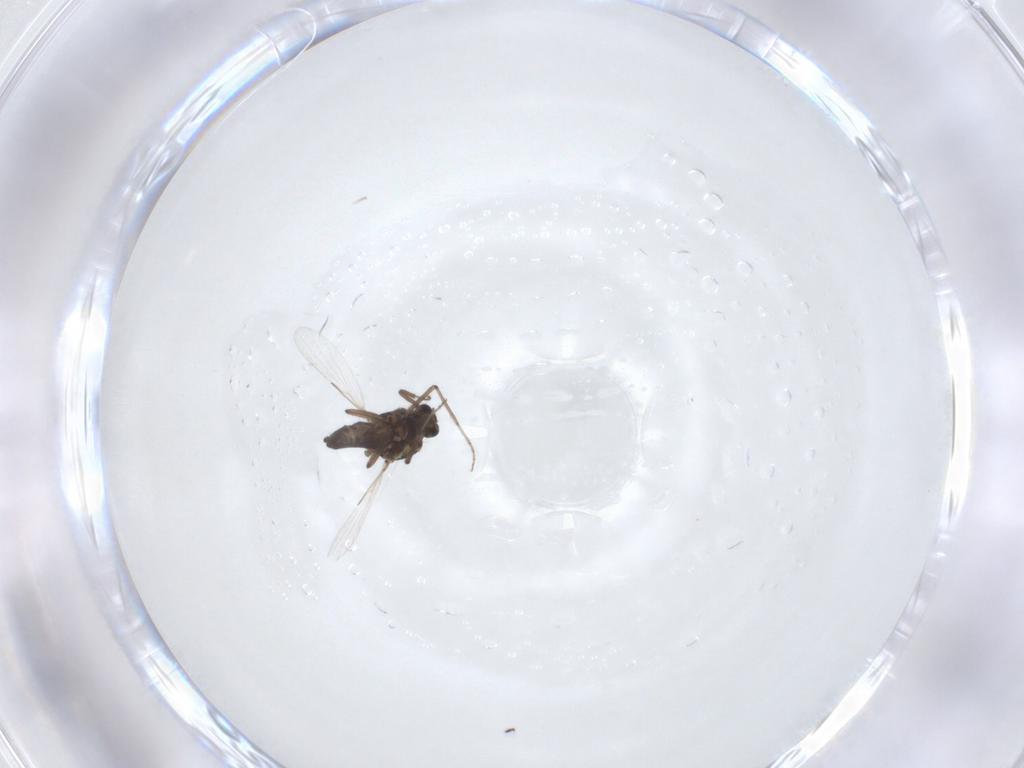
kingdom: Animalia
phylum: Arthropoda
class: Insecta
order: Diptera
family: Ceratopogonidae
